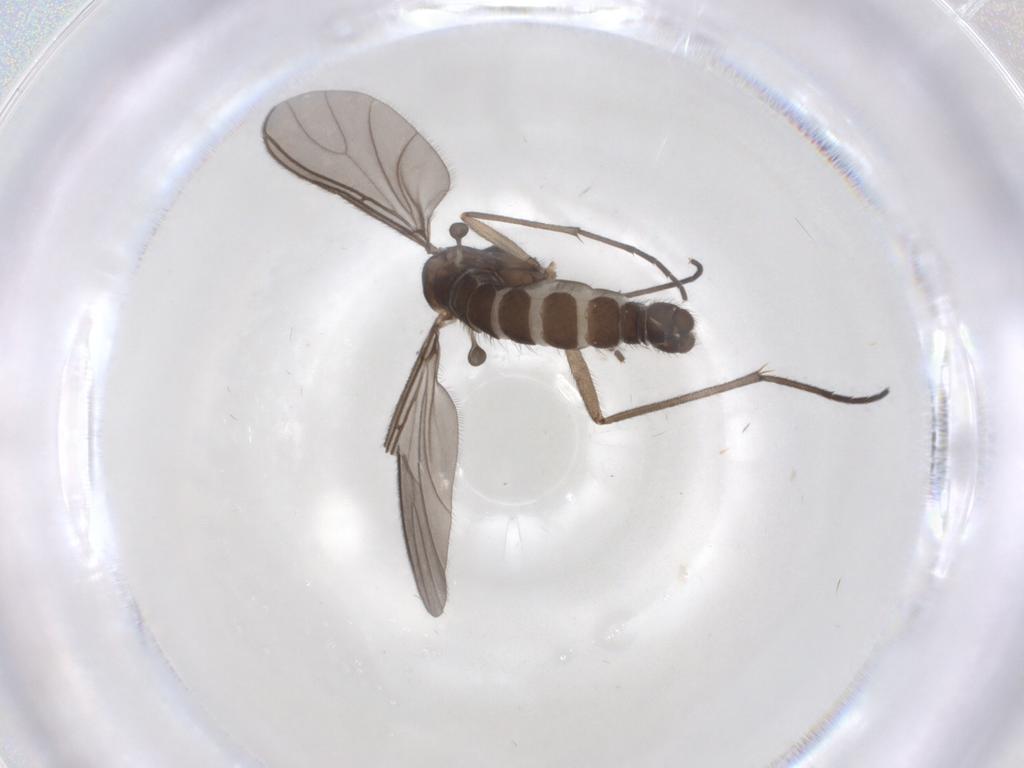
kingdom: Animalia
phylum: Arthropoda
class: Insecta
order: Diptera
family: Sciaridae
